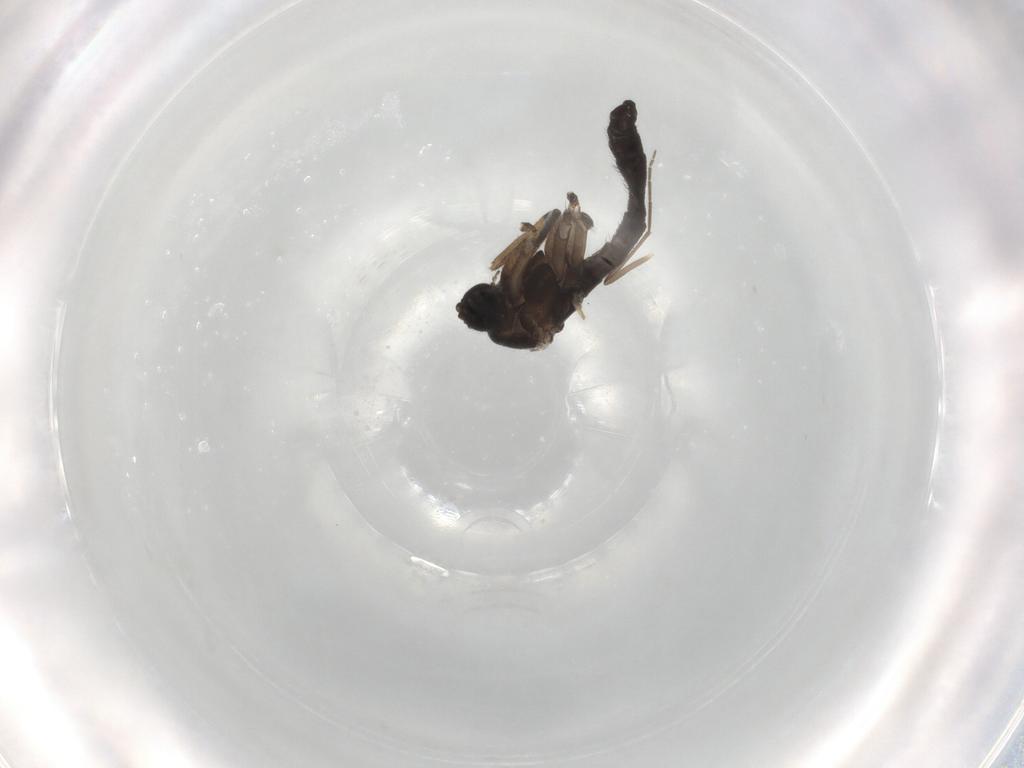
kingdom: Animalia
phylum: Arthropoda
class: Insecta
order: Diptera
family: Sciaridae
